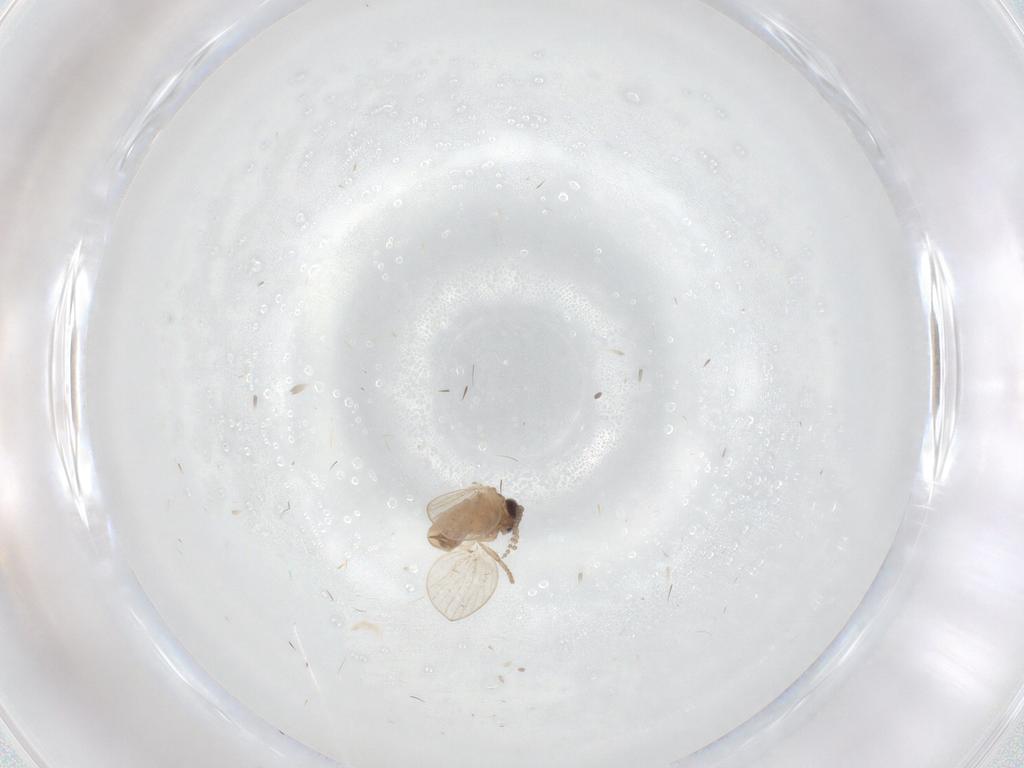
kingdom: Animalia
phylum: Arthropoda
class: Insecta
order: Diptera
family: Psychodidae
